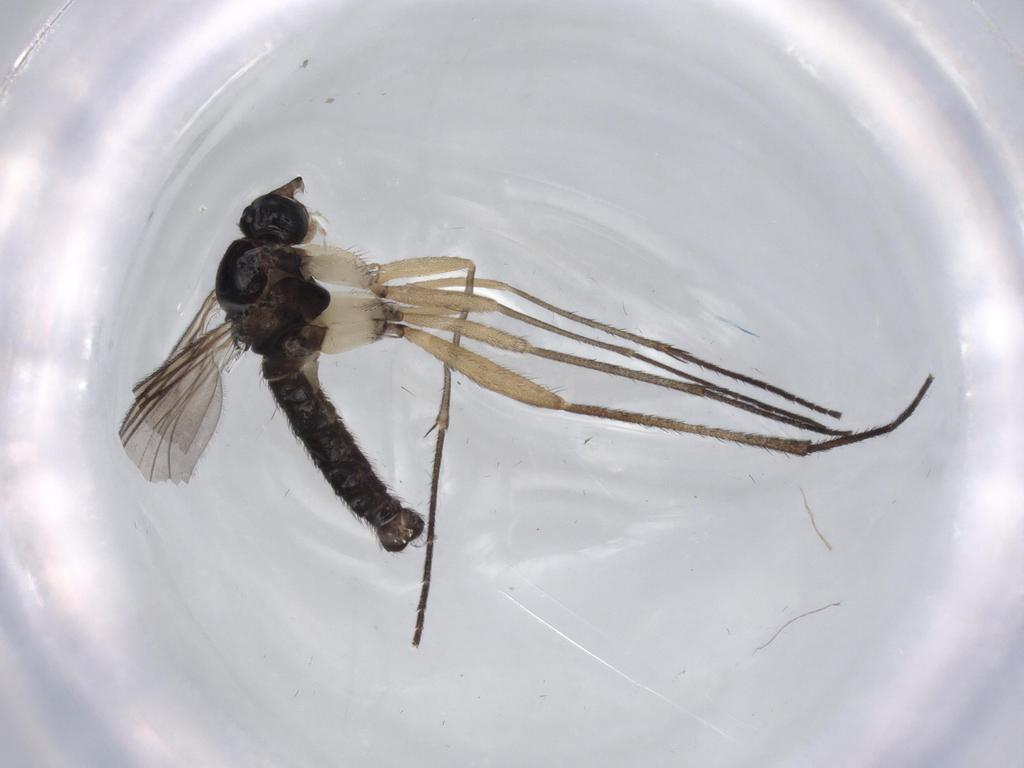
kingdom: Animalia
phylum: Arthropoda
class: Insecta
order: Diptera
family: Sciaridae
